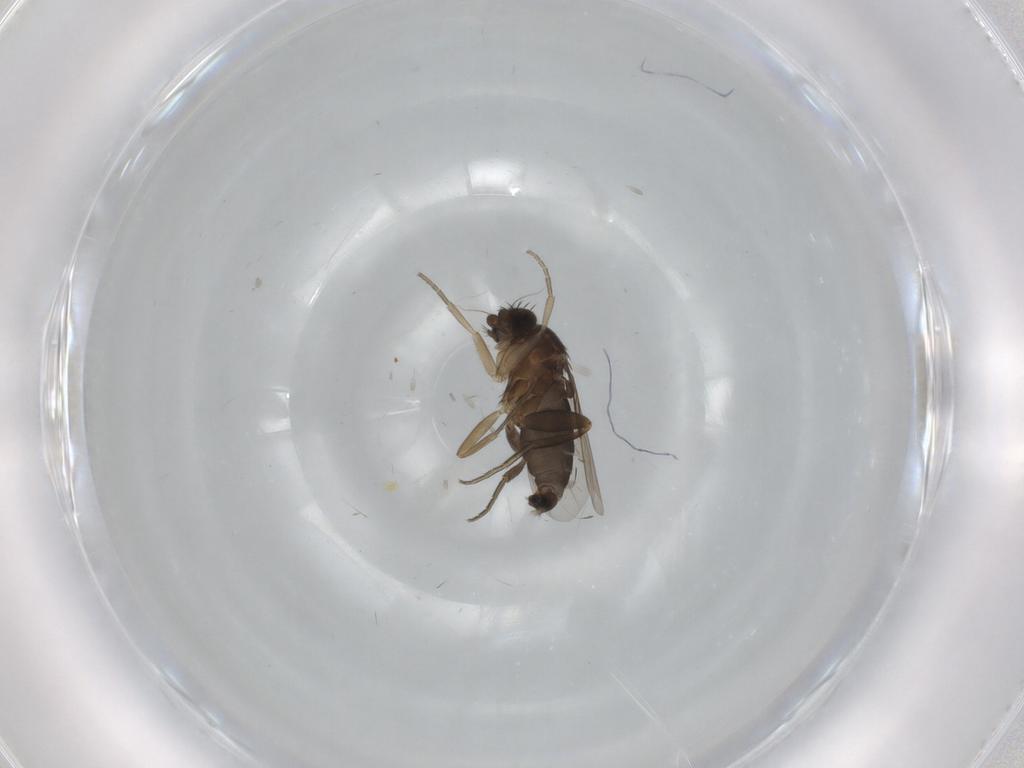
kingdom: Animalia
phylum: Arthropoda
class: Insecta
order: Diptera
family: Phoridae
